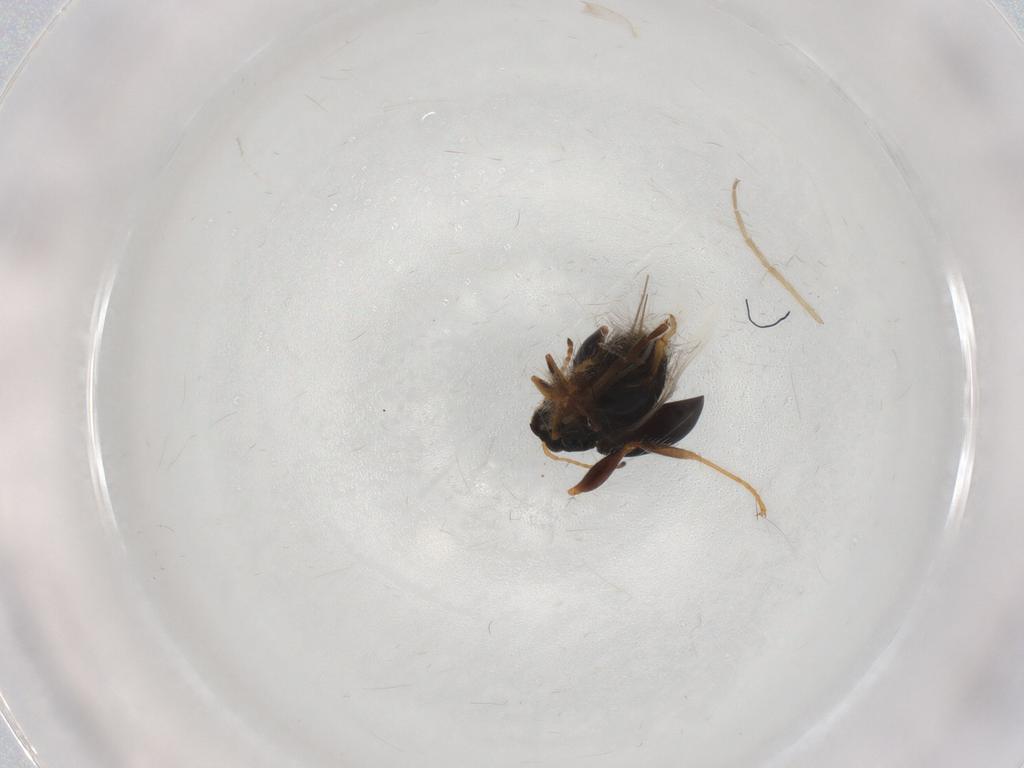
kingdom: Animalia
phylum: Arthropoda
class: Insecta
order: Coleoptera
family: Chrysomelidae
